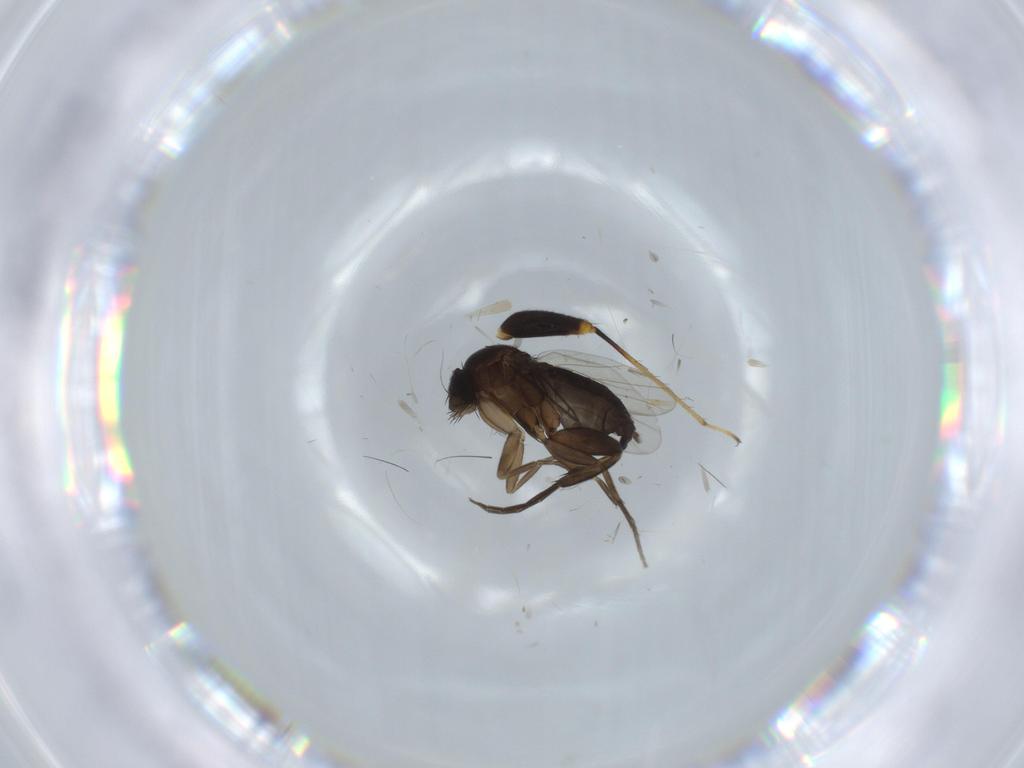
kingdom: Animalia
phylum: Arthropoda
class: Insecta
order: Diptera
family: Phoridae
